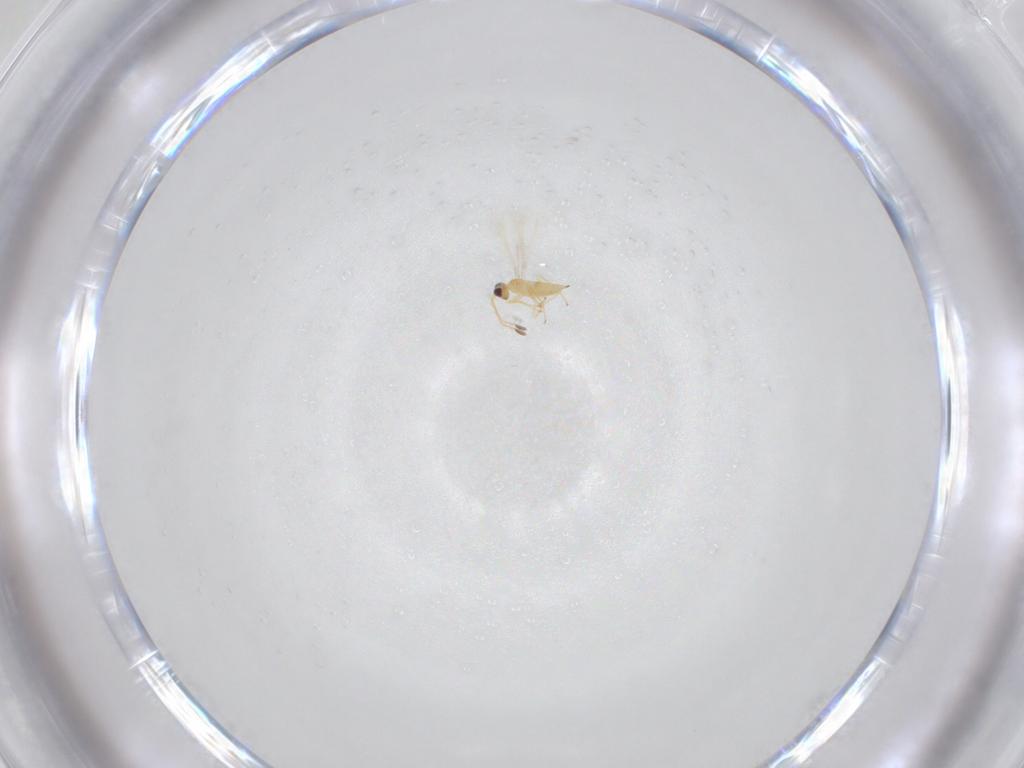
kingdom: Animalia
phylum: Arthropoda
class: Insecta
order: Hymenoptera
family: Mymaridae
